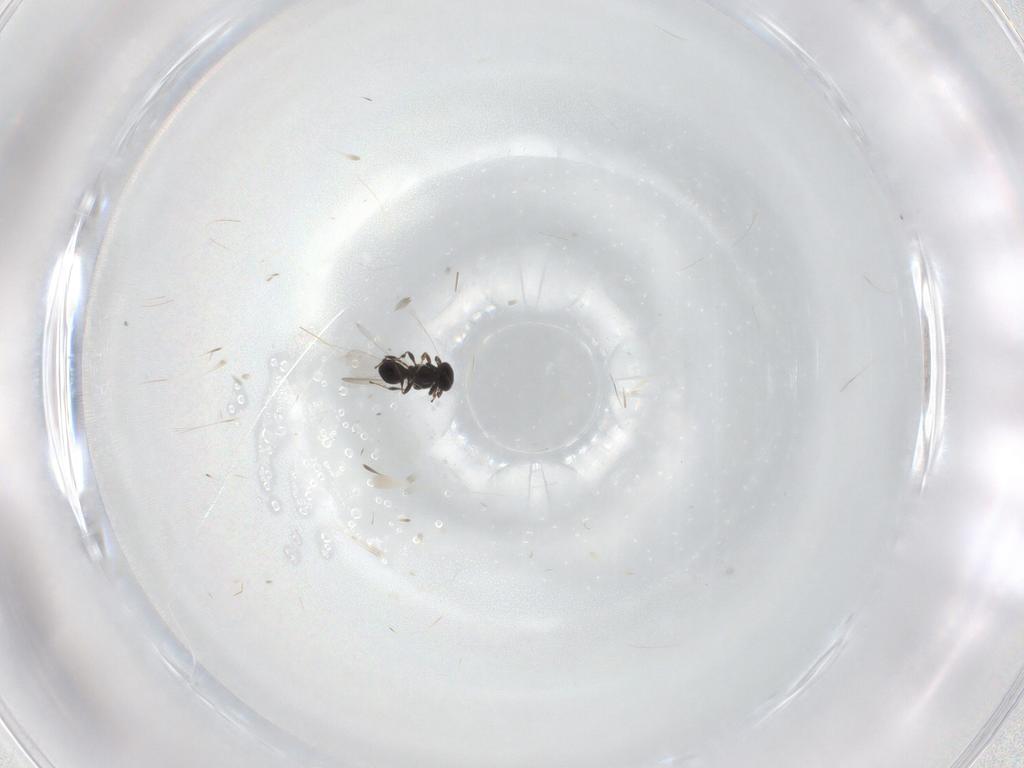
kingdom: Animalia
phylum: Arthropoda
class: Insecta
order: Hymenoptera
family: Platygastridae
